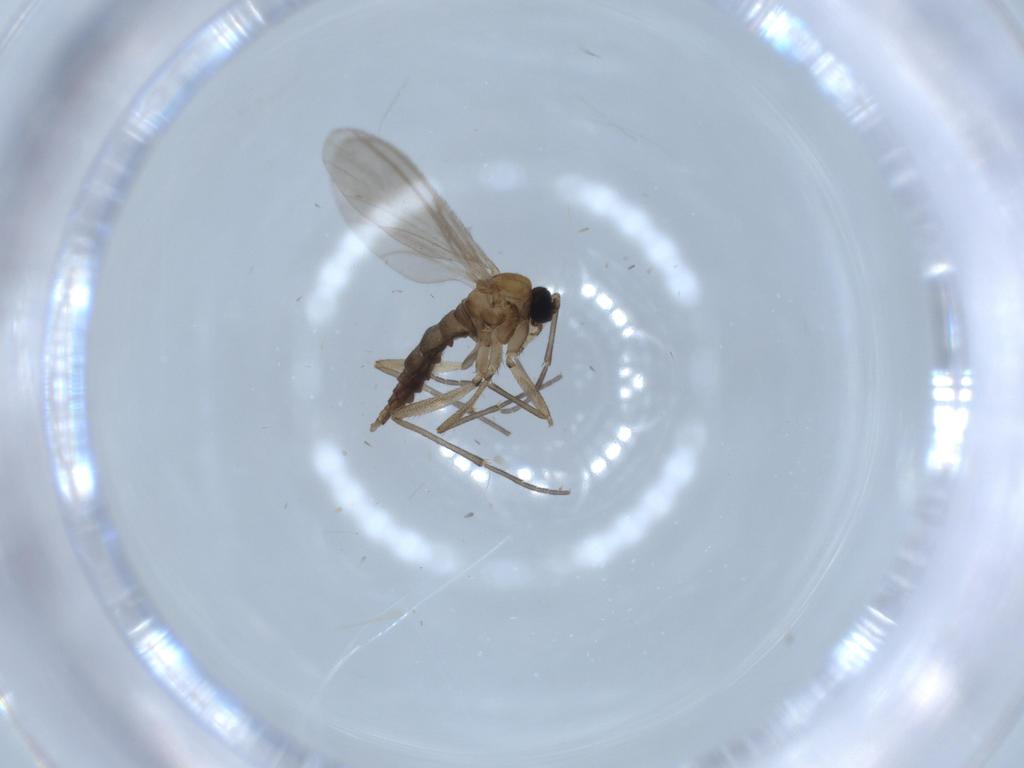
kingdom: Animalia
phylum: Arthropoda
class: Insecta
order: Diptera
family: Sciaridae
